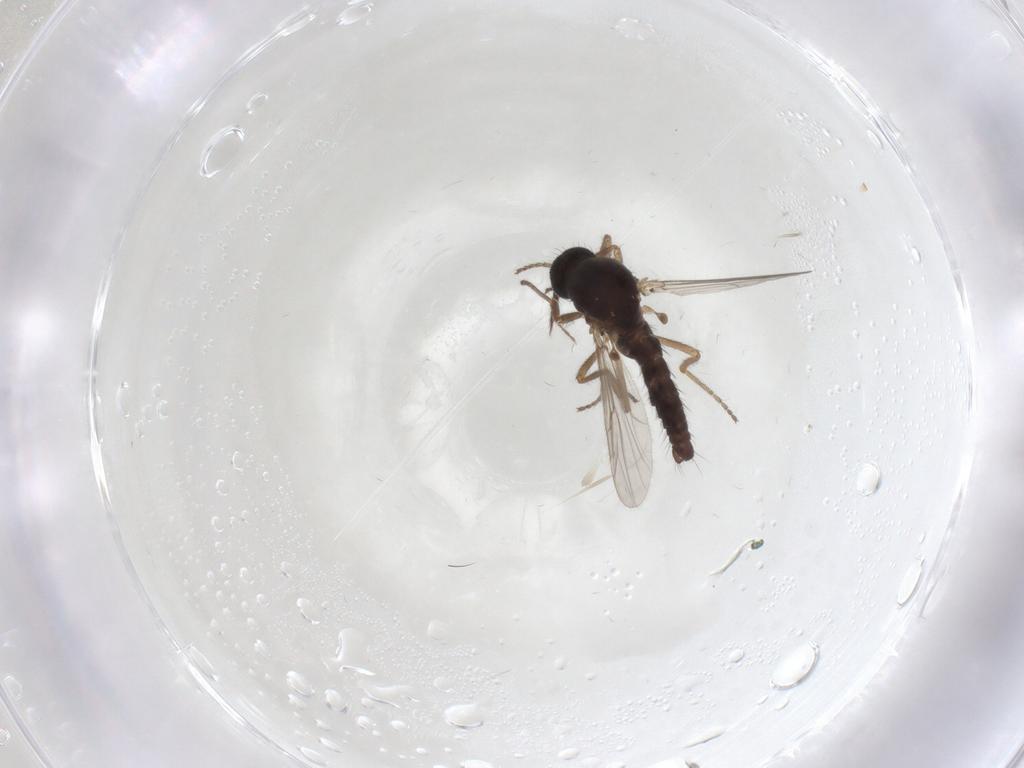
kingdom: Animalia
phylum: Arthropoda
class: Insecta
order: Diptera
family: Ceratopogonidae
